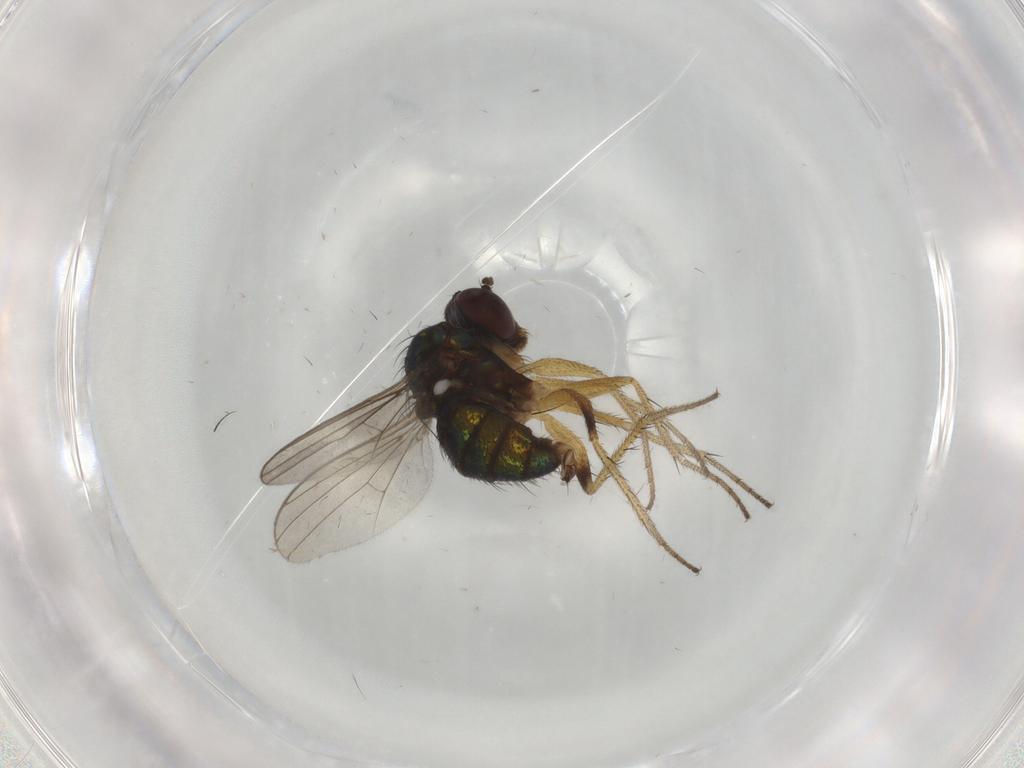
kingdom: Animalia
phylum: Arthropoda
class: Insecta
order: Diptera
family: Dolichopodidae
